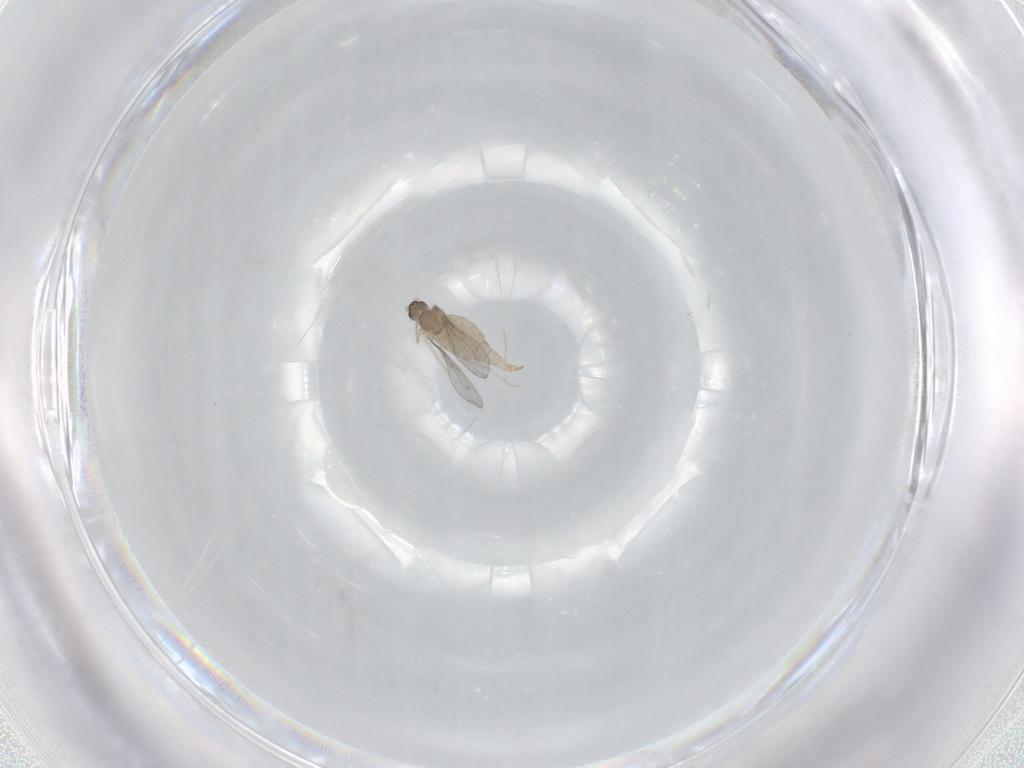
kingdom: Animalia
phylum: Arthropoda
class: Insecta
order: Diptera
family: Cecidomyiidae
